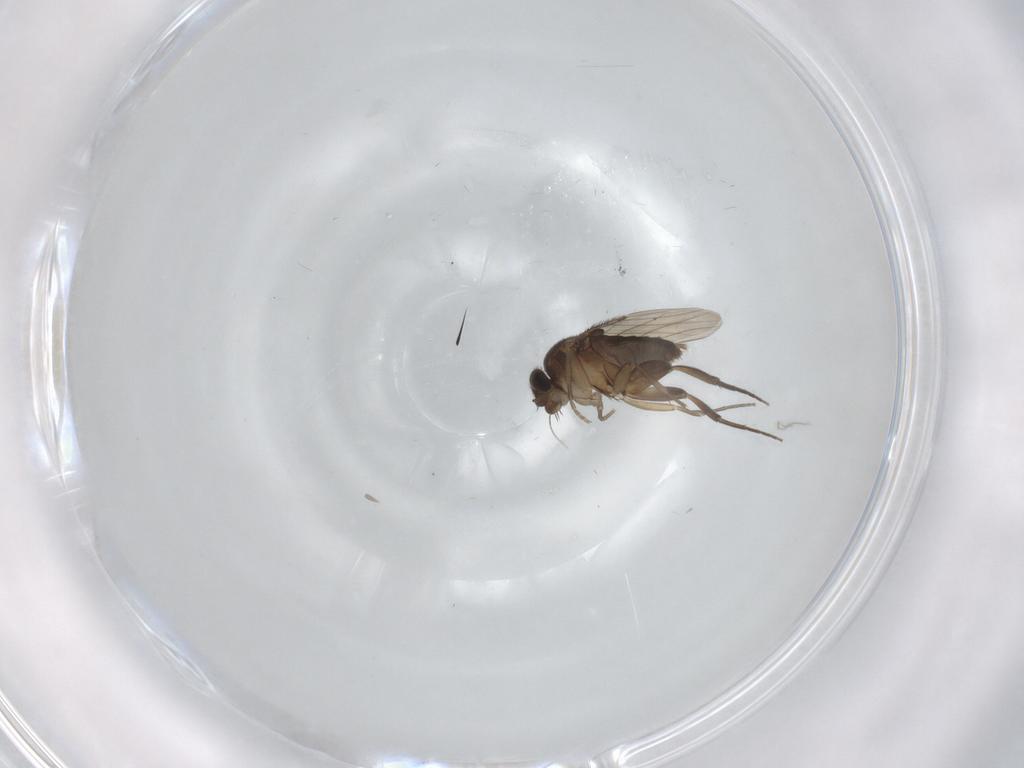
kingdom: Animalia
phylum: Arthropoda
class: Insecta
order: Diptera
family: Phoridae
